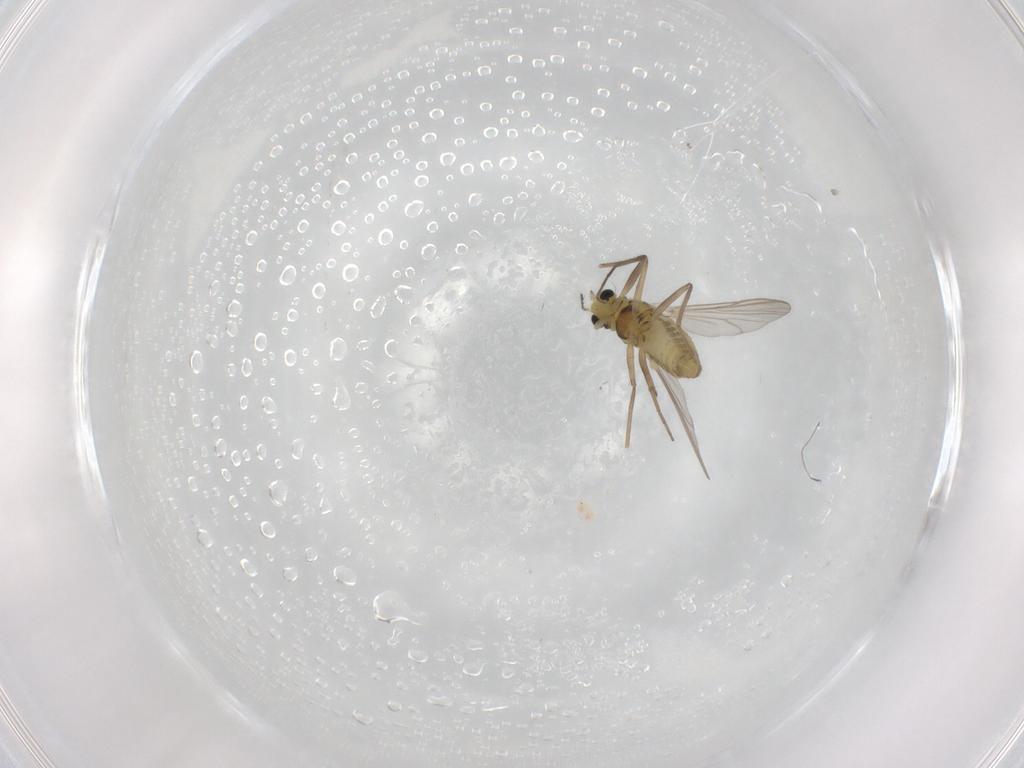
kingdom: Animalia
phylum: Arthropoda
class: Insecta
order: Diptera
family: Chironomidae
